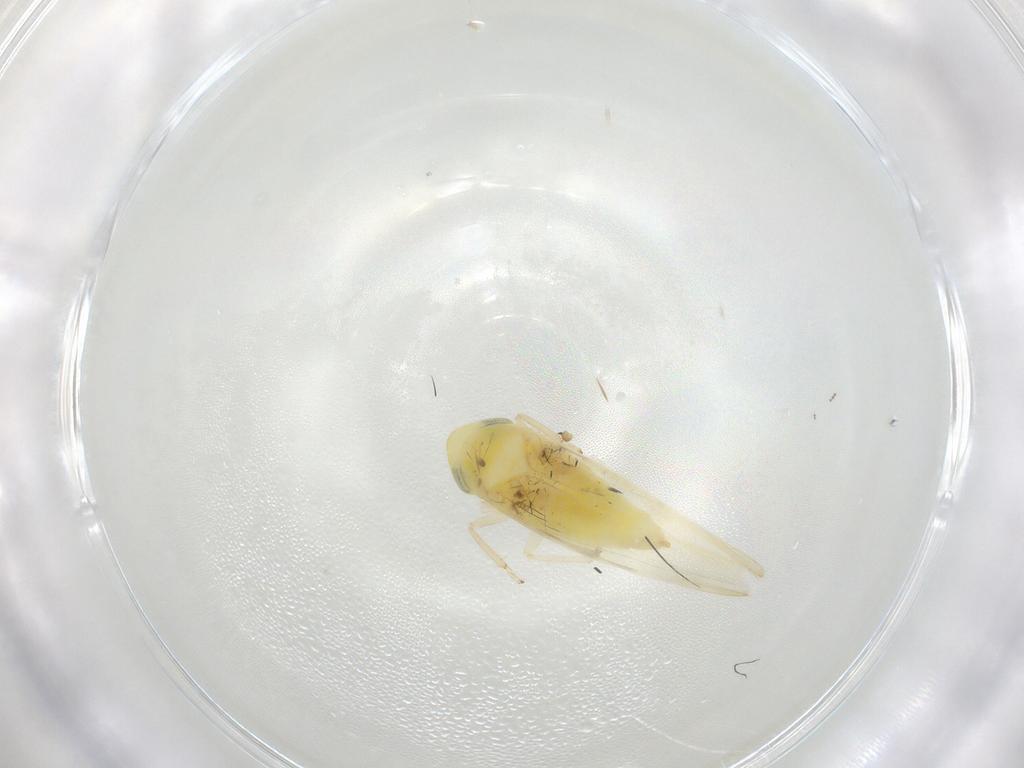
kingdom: Animalia
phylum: Arthropoda
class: Insecta
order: Hemiptera
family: Cicadellidae
